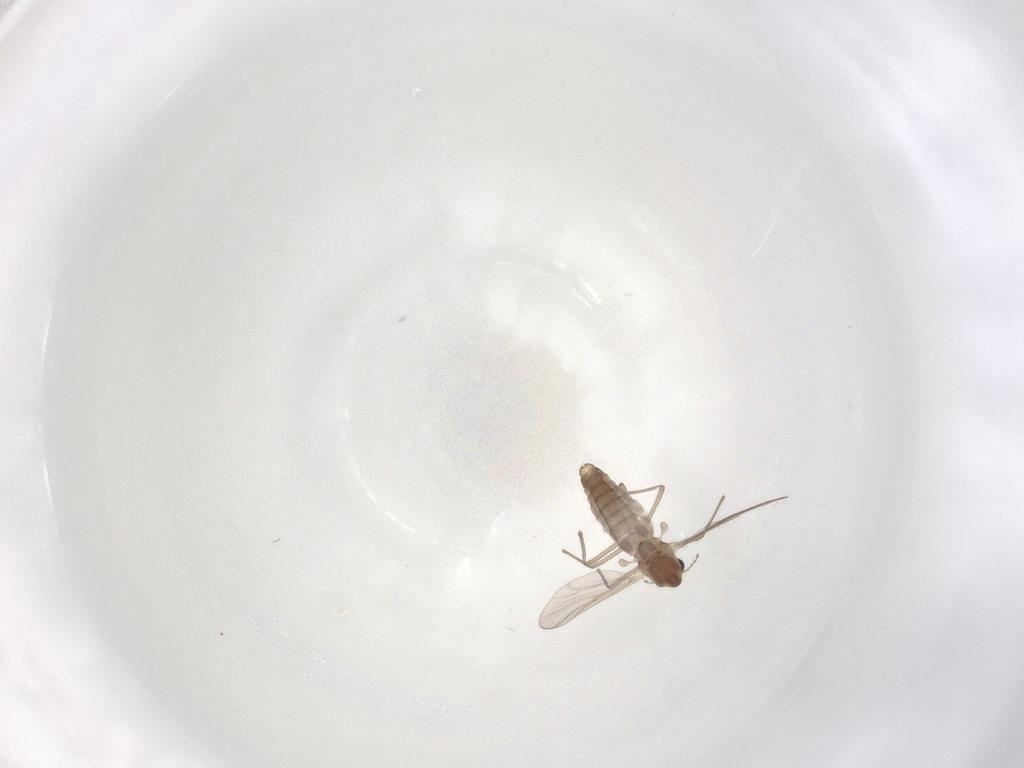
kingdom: Animalia
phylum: Arthropoda
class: Insecta
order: Diptera
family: Chironomidae
